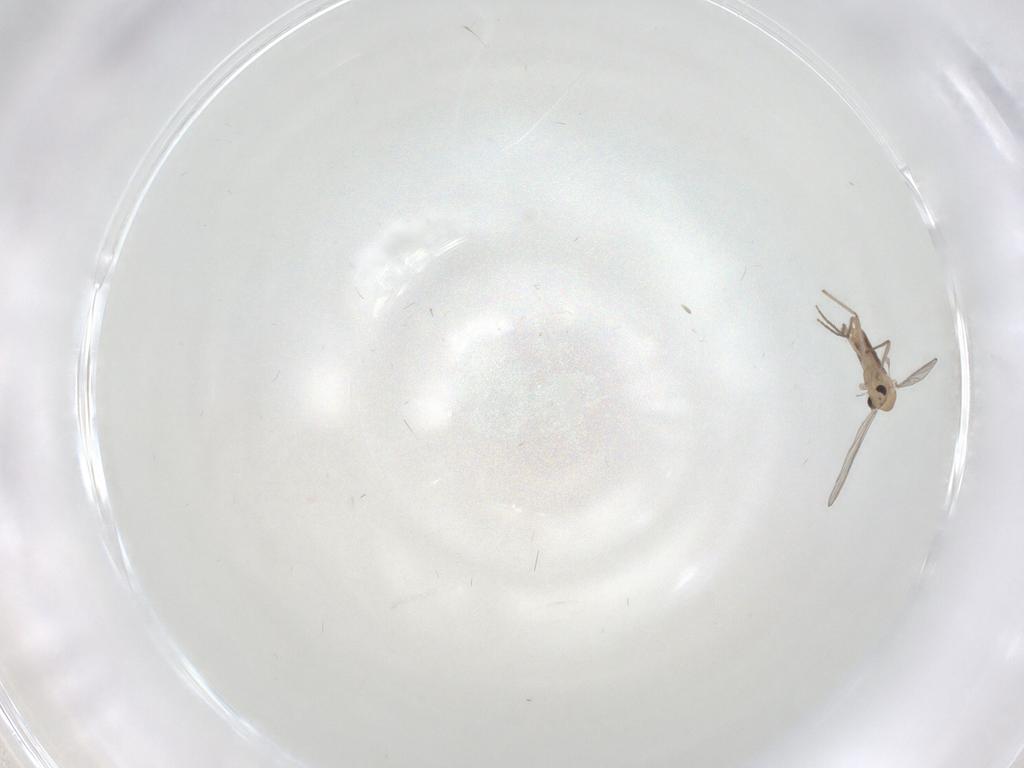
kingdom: Animalia
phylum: Arthropoda
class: Insecta
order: Diptera
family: Chironomidae
